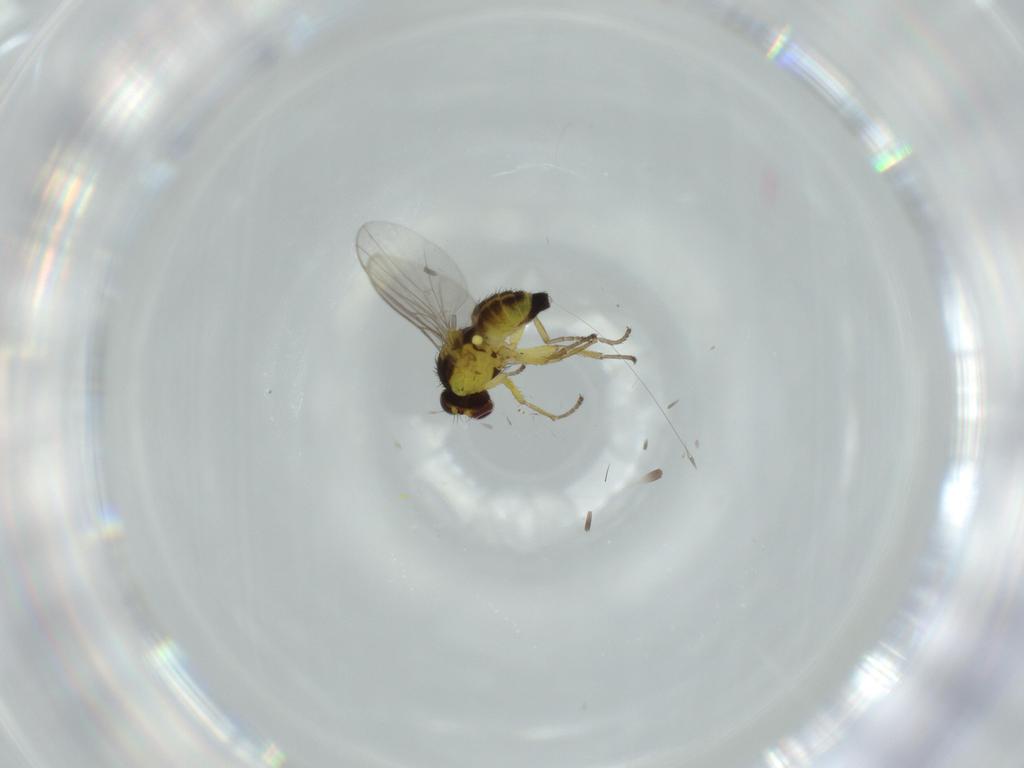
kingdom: Animalia
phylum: Arthropoda
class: Insecta
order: Diptera
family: Agromyzidae
